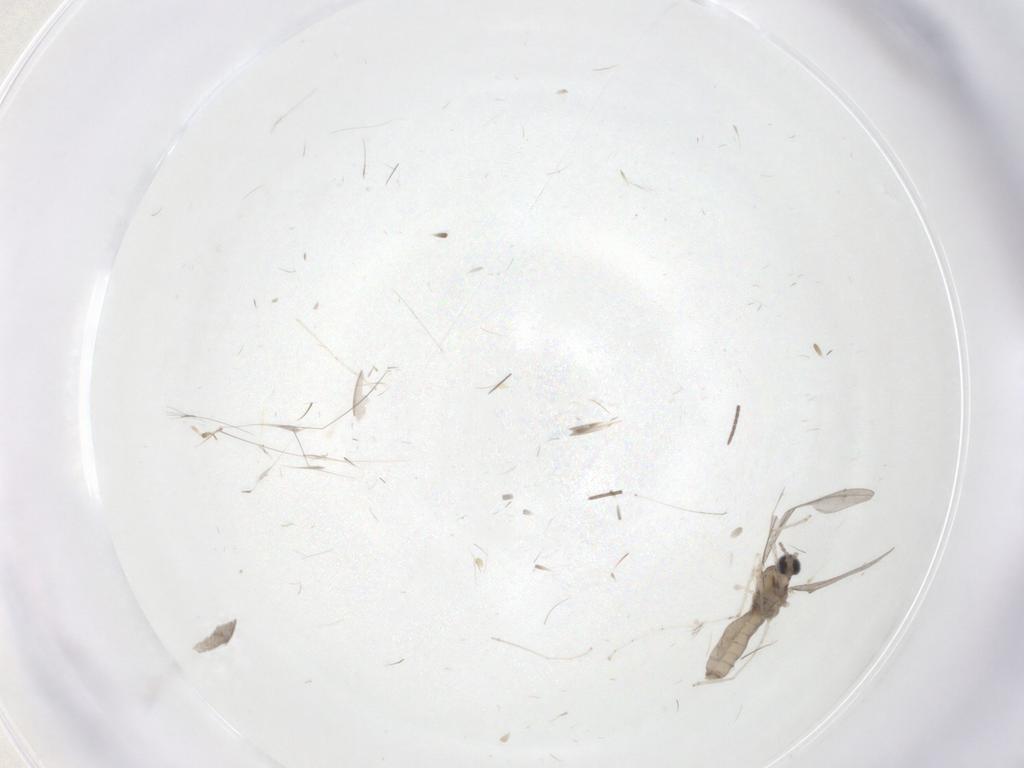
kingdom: Animalia
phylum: Arthropoda
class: Insecta
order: Diptera
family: Cecidomyiidae
